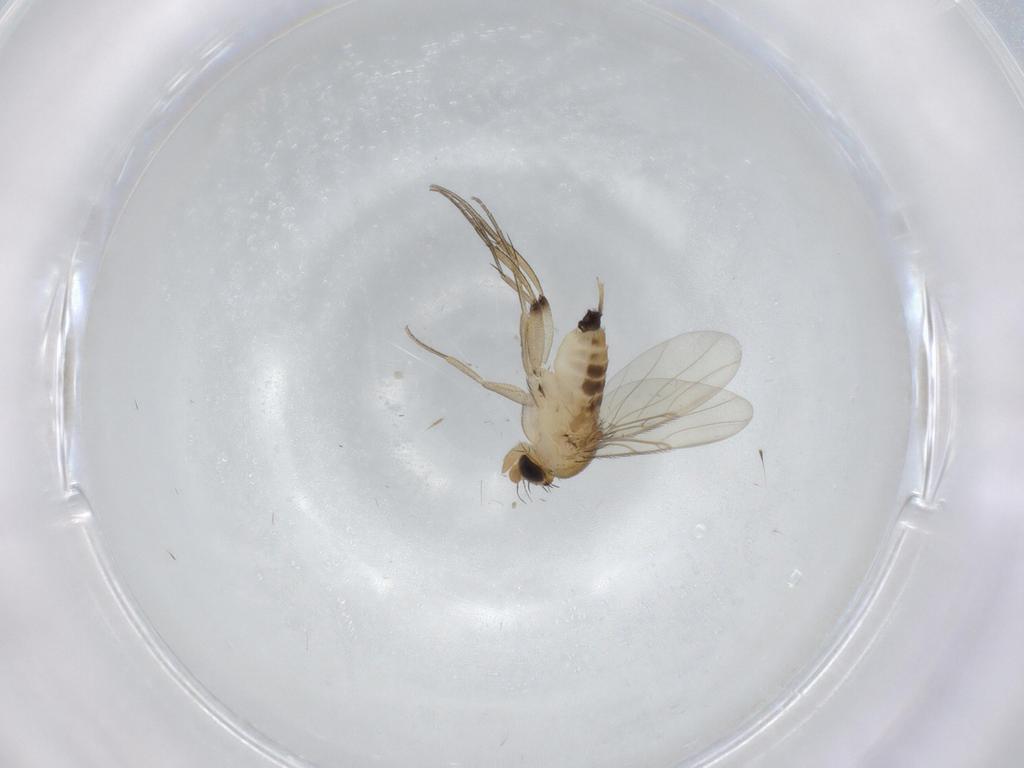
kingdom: Animalia
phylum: Arthropoda
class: Insecta
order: Diptera
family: Phoridae
